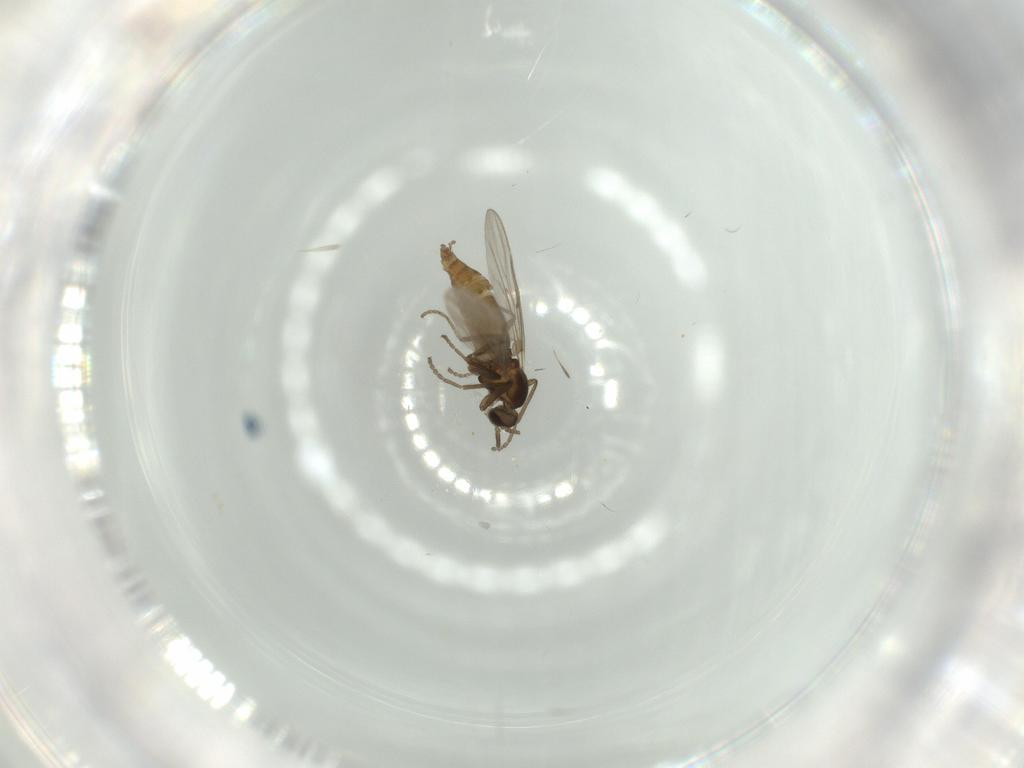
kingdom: Animalia
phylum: Arthropoda
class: Insecta
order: Diptera
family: Cecidomyiidae
